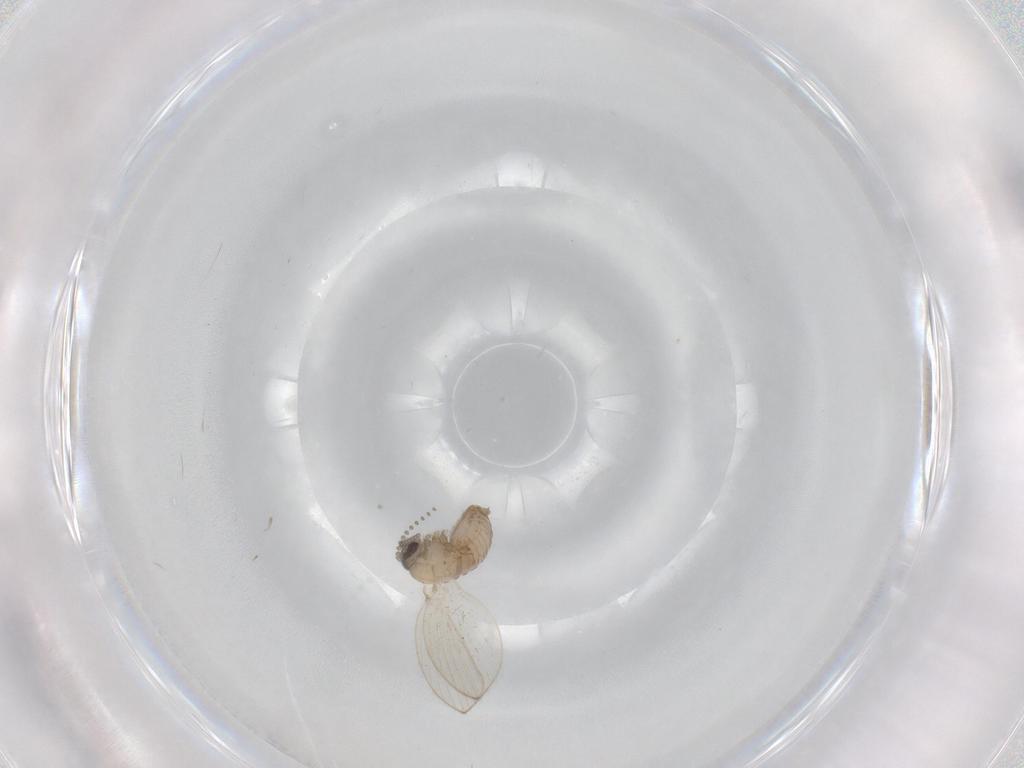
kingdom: Animalia
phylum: Arthropoda
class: Insecta
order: Diptera
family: Psychodidae
